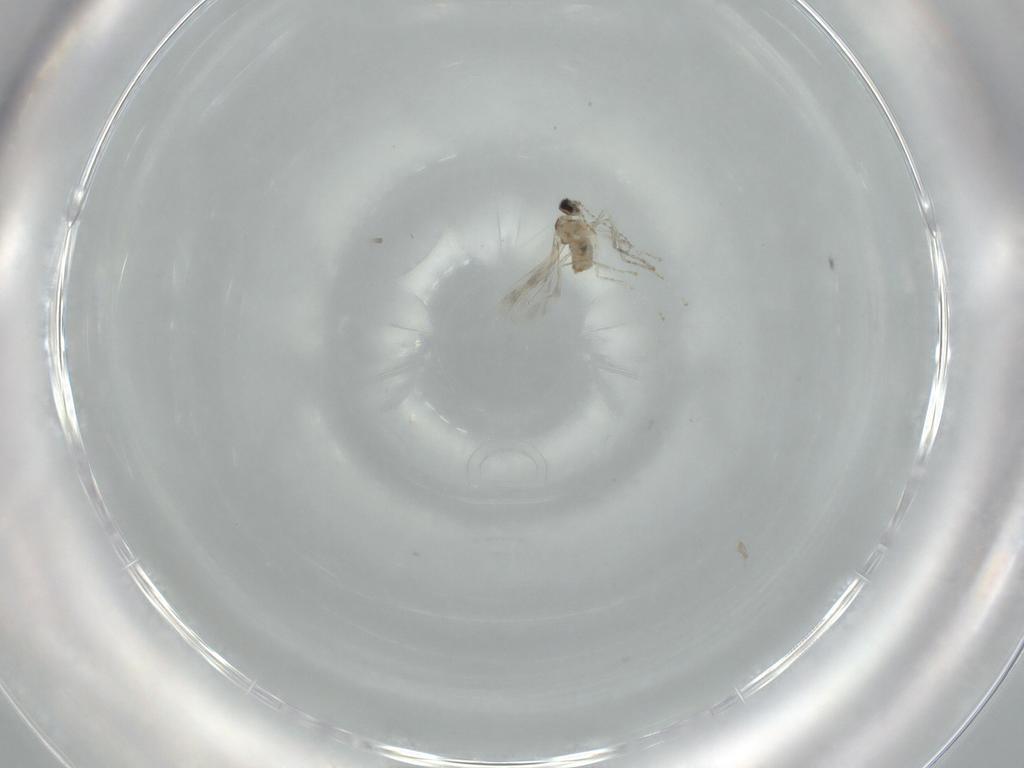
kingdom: Animalia
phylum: Arthropoda
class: Insecta
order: Diptera
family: Cecidomyiidae
